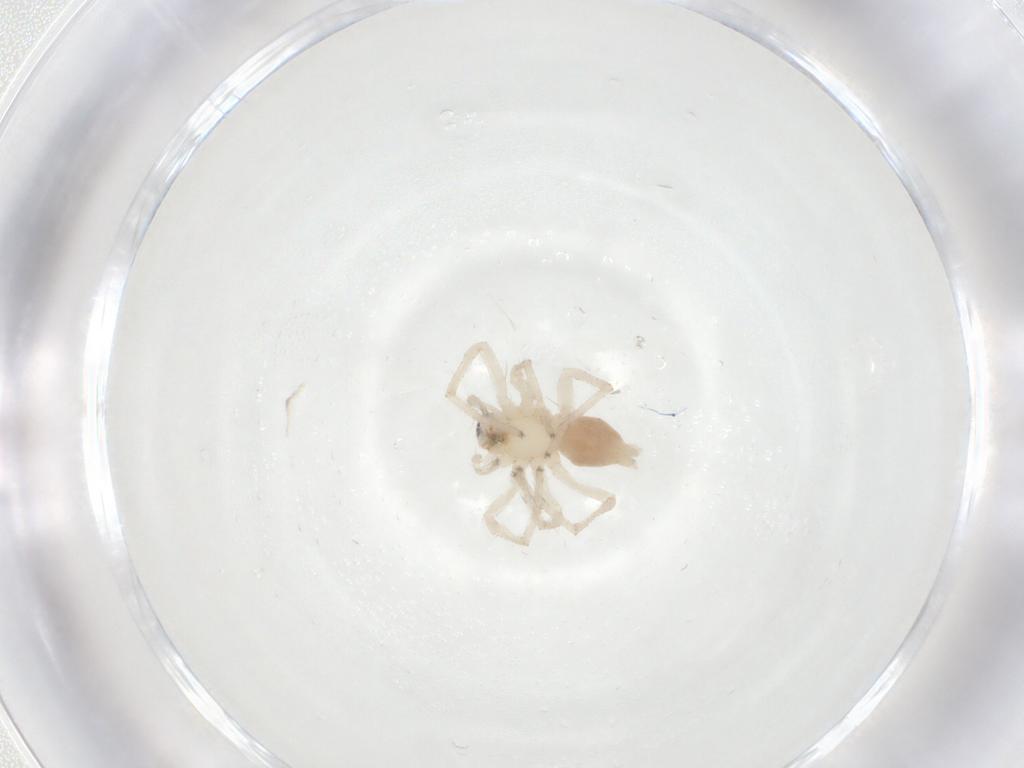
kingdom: Animalia
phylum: Arthropoda
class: Arachnida
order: Araneae
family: Anyphaenidae
